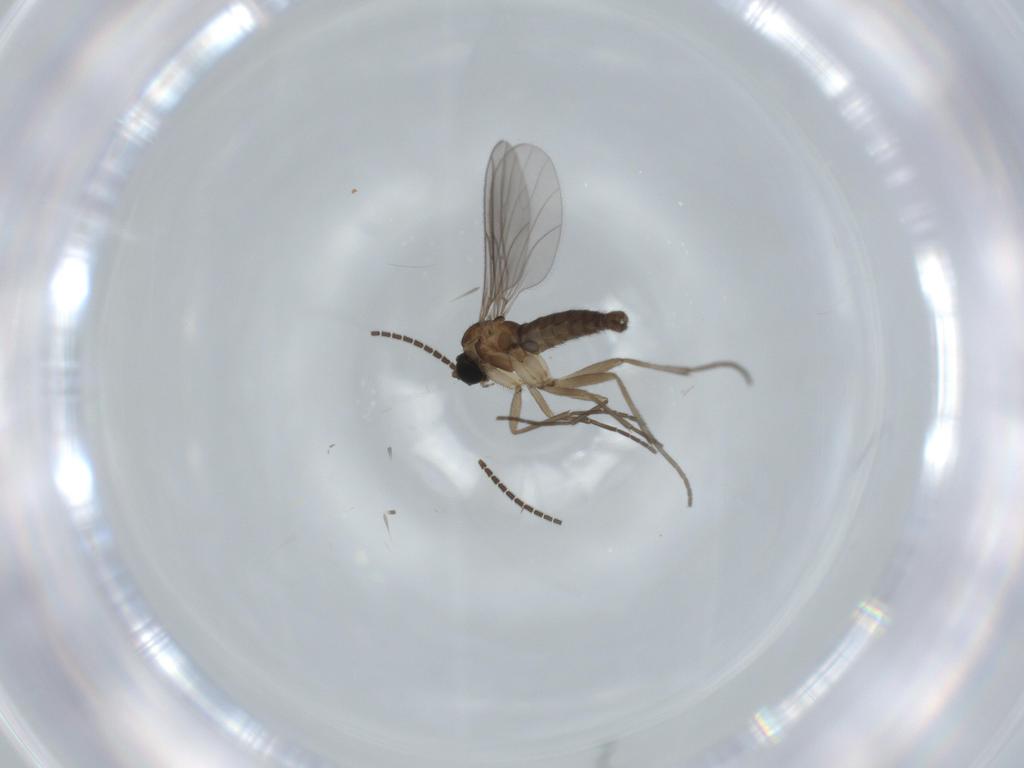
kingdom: Animalia
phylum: Arthropoda
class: Insecta
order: Diptera
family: Sciaridae
